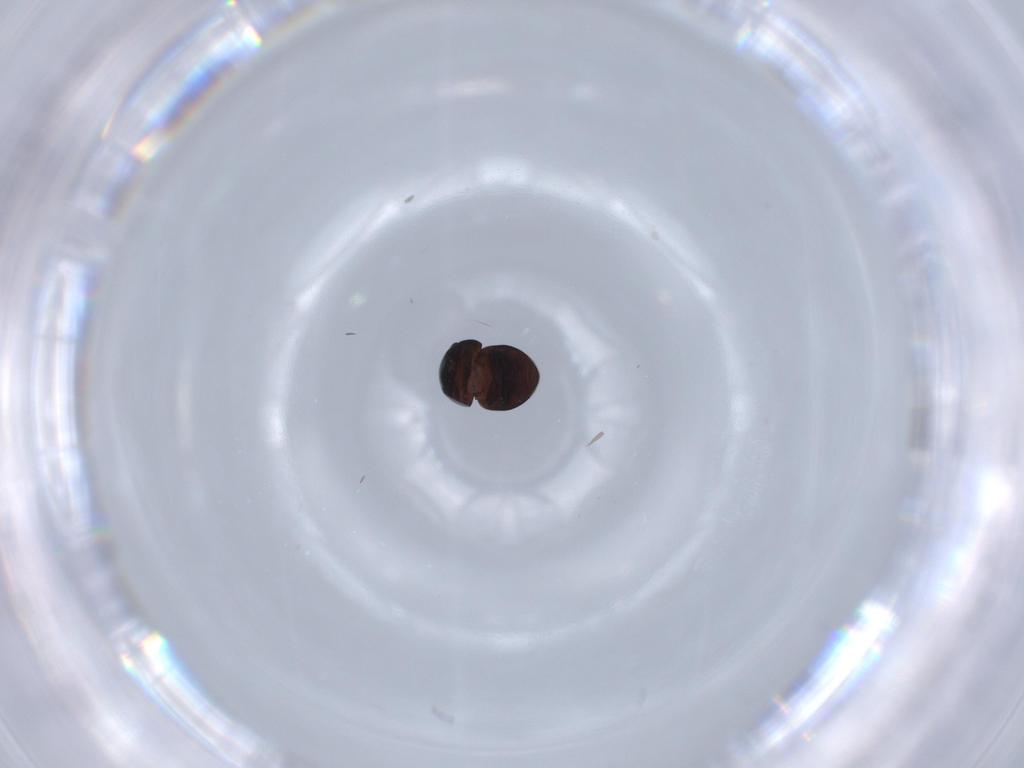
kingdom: Animalia
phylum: Arthropoda
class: Insecta
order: Coleoptera
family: Cybocephalidae
